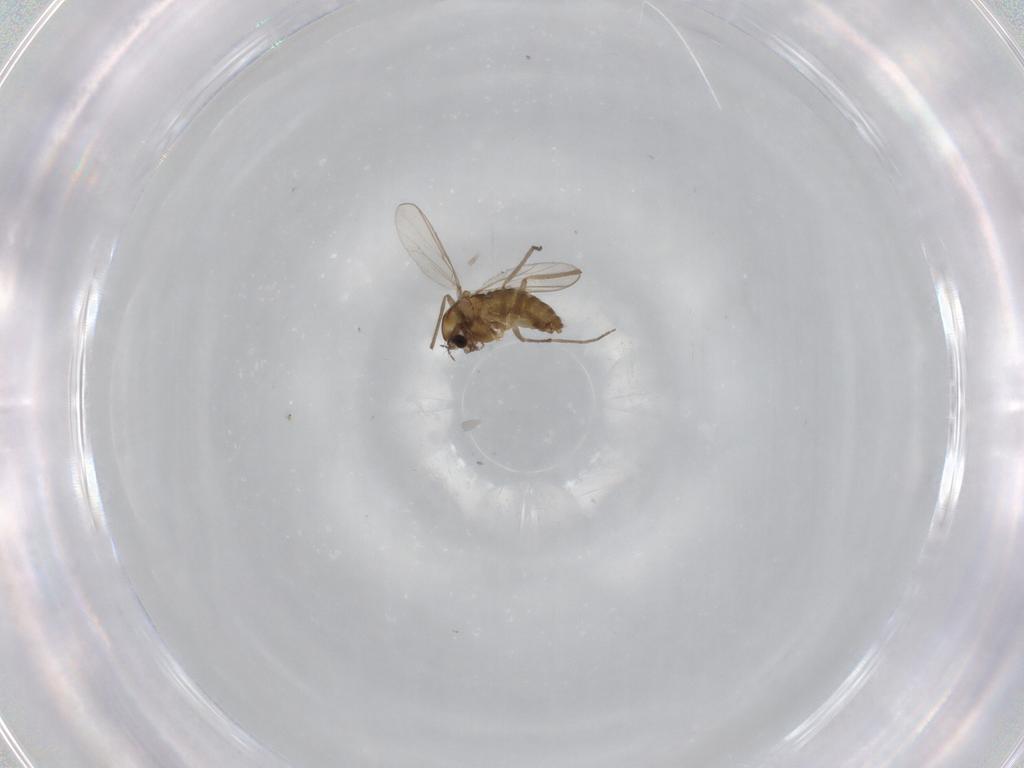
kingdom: Animalia
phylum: Arthropoda
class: Insecta
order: Diptera
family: Chironomidae
